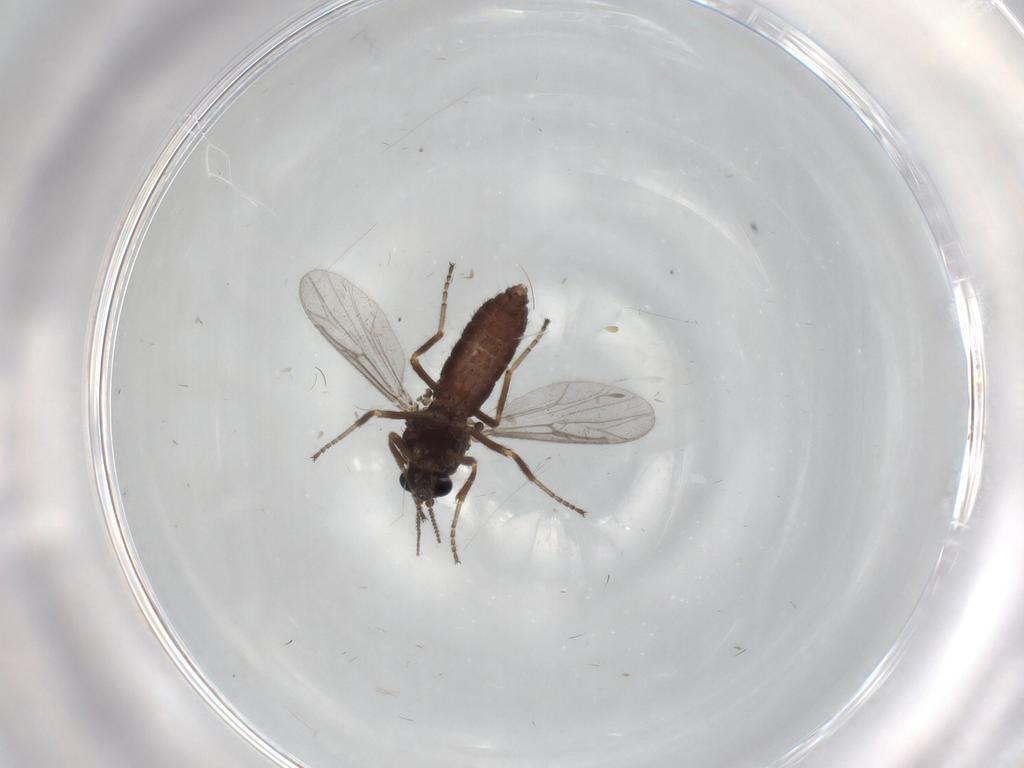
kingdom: Animalia
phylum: Arthropoda
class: Insecta
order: Diptera
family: Ceratopogonidae
